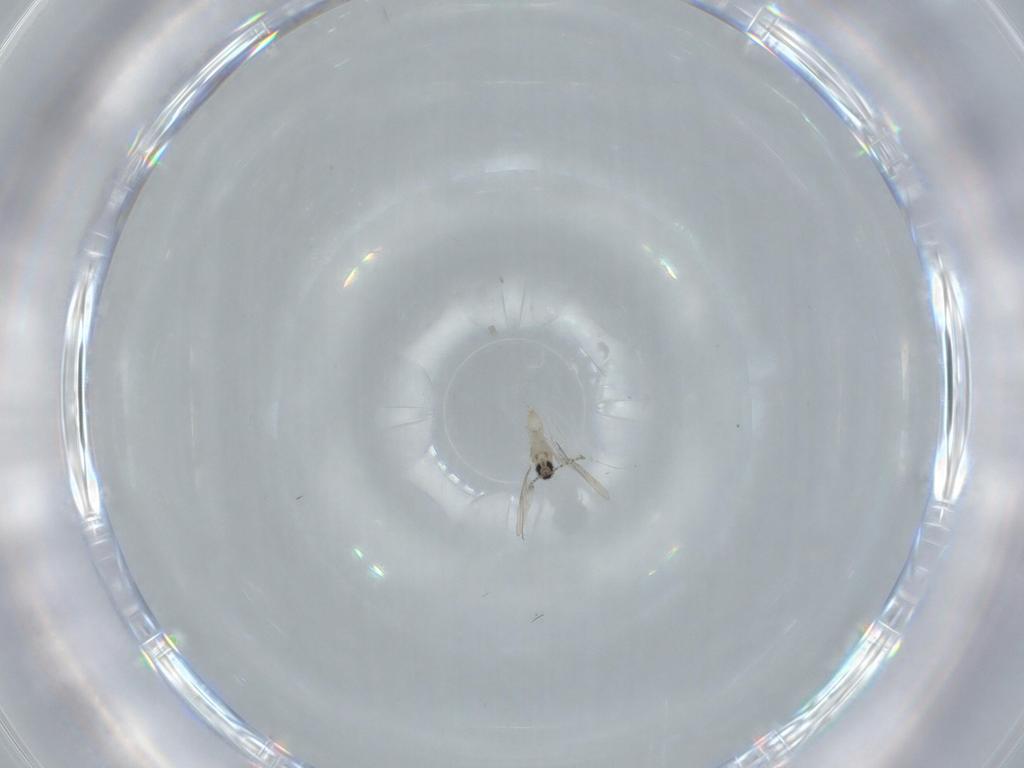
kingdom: Animalia
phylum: Arthropoda
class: Insecta
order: Diptera
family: Cecidomyiidae
